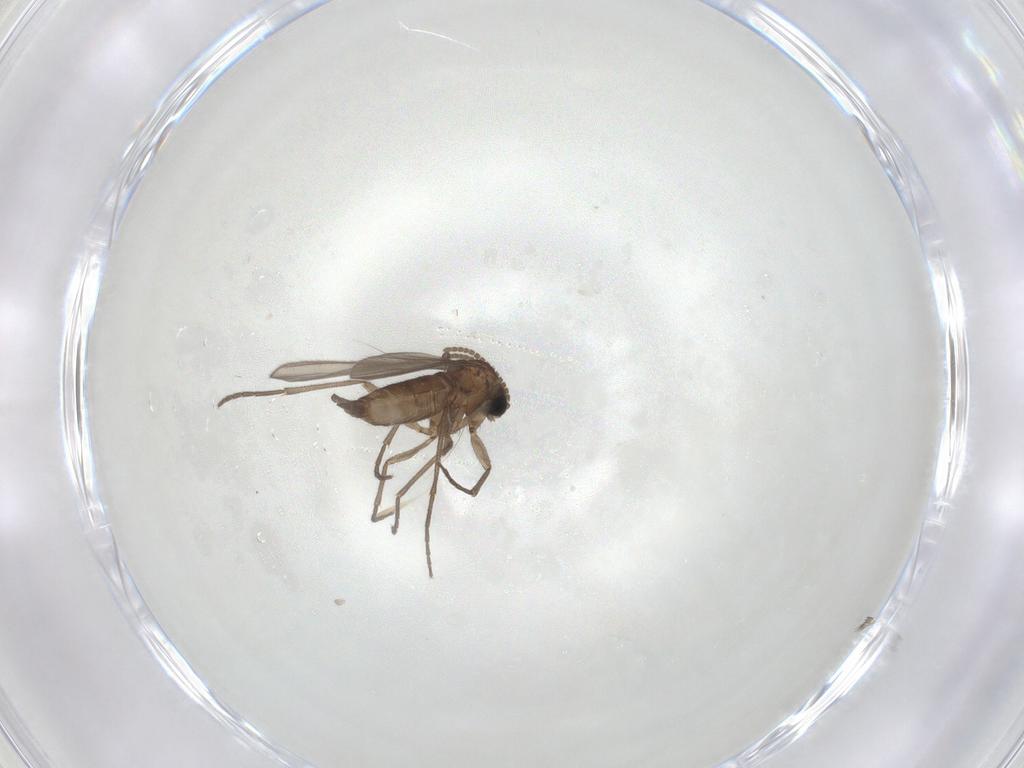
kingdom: Animalia
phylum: Arthropoda
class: Insecta
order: Diptera
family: Sciaridae
